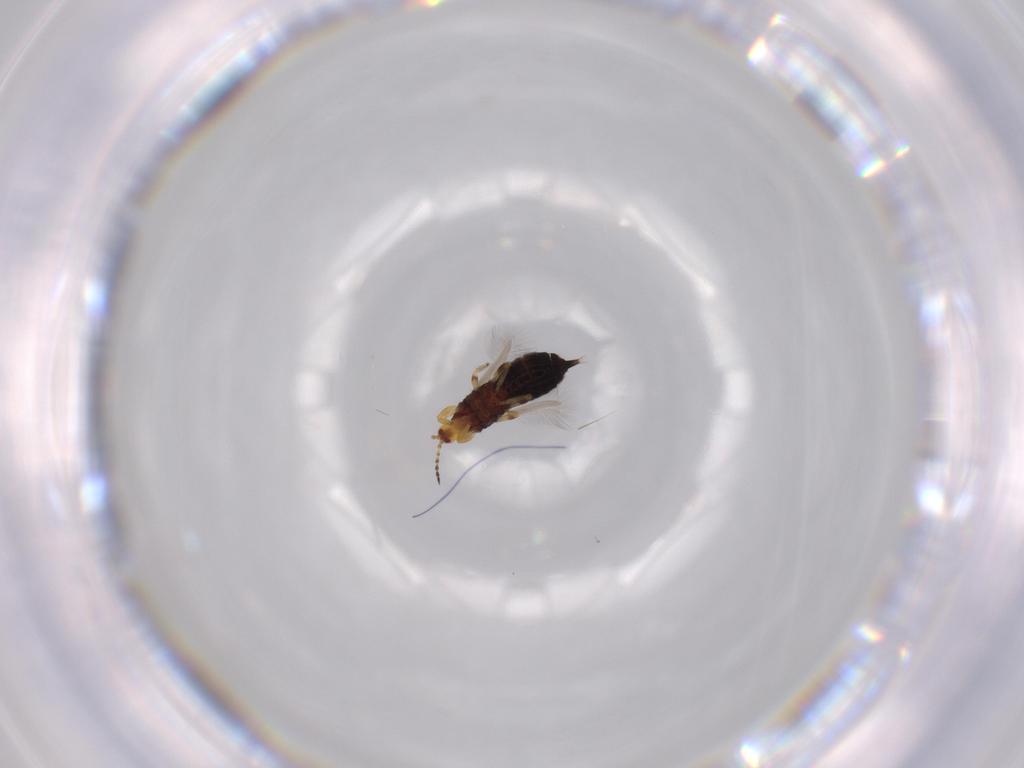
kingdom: Animalia
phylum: Arthropoda
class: Insecta
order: Thysanoptera
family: Phlaeothripidae
